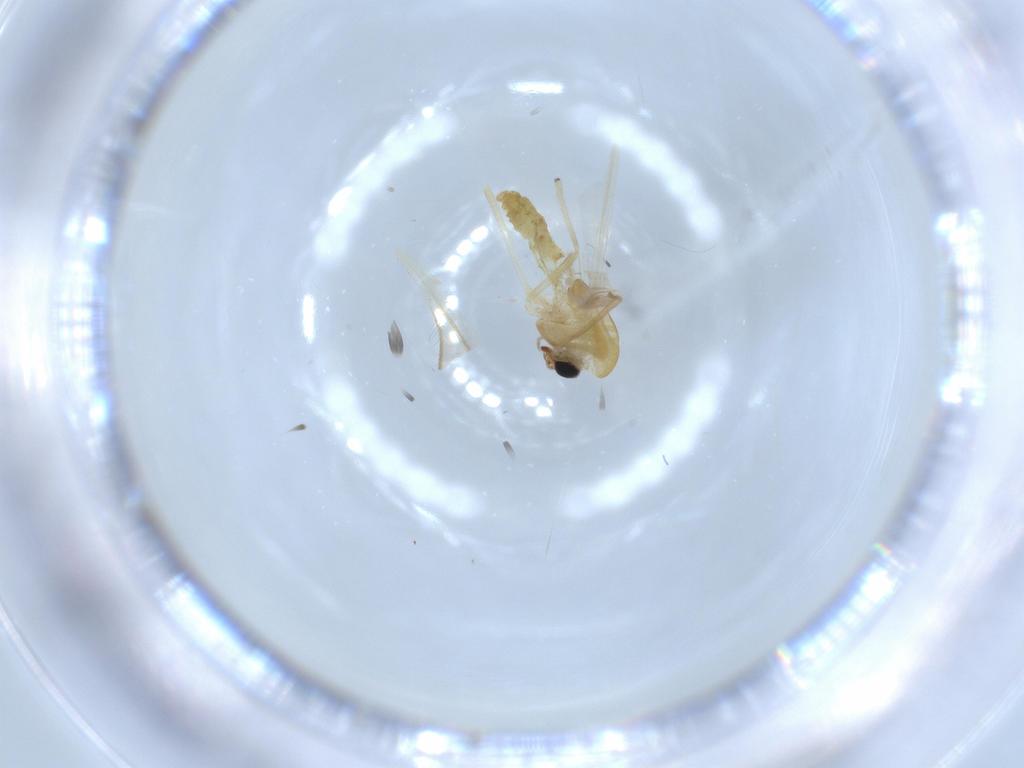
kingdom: Animalia
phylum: Arthropoda
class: Insecta
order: Diptera
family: Chironomidae
